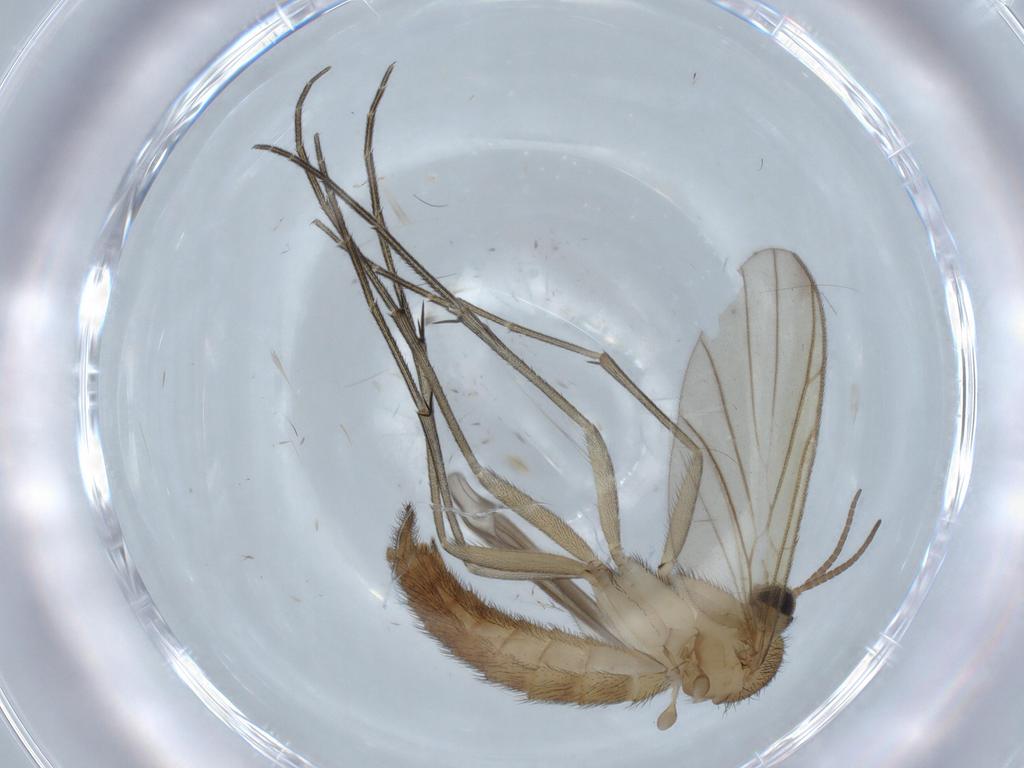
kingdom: Animalia
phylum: Arthropoda
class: Insecta
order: Diptera
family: Keroplatidae
